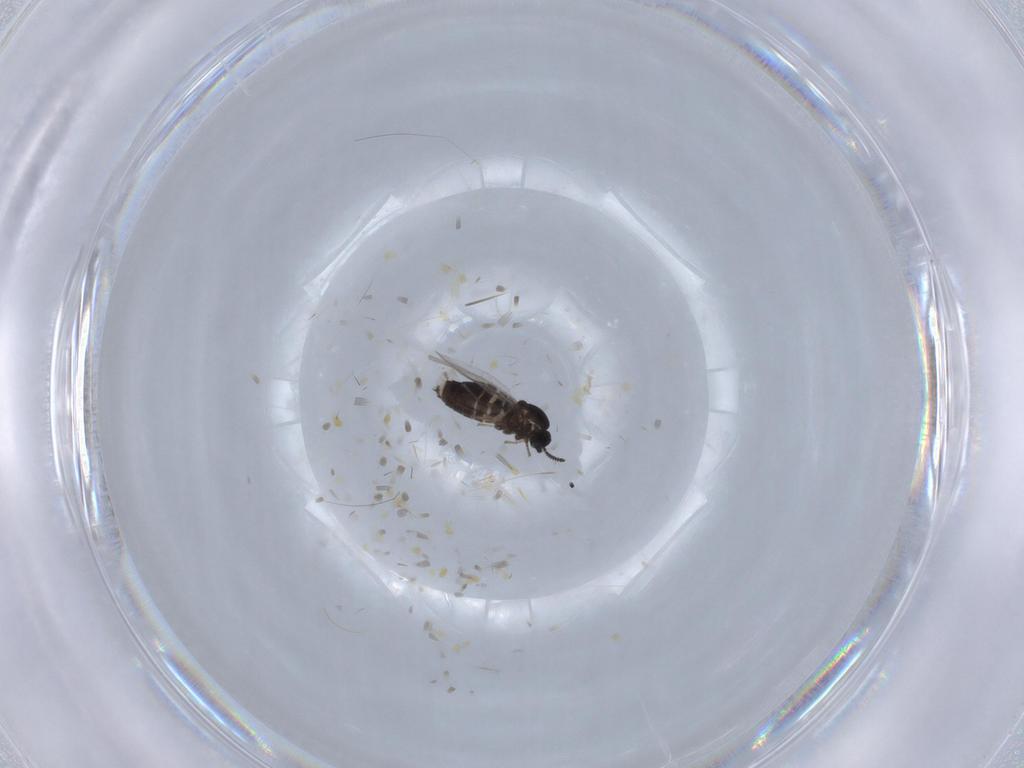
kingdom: Animalia
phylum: Arthropoda
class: Insecta
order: Diptera
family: Scatopsidae
